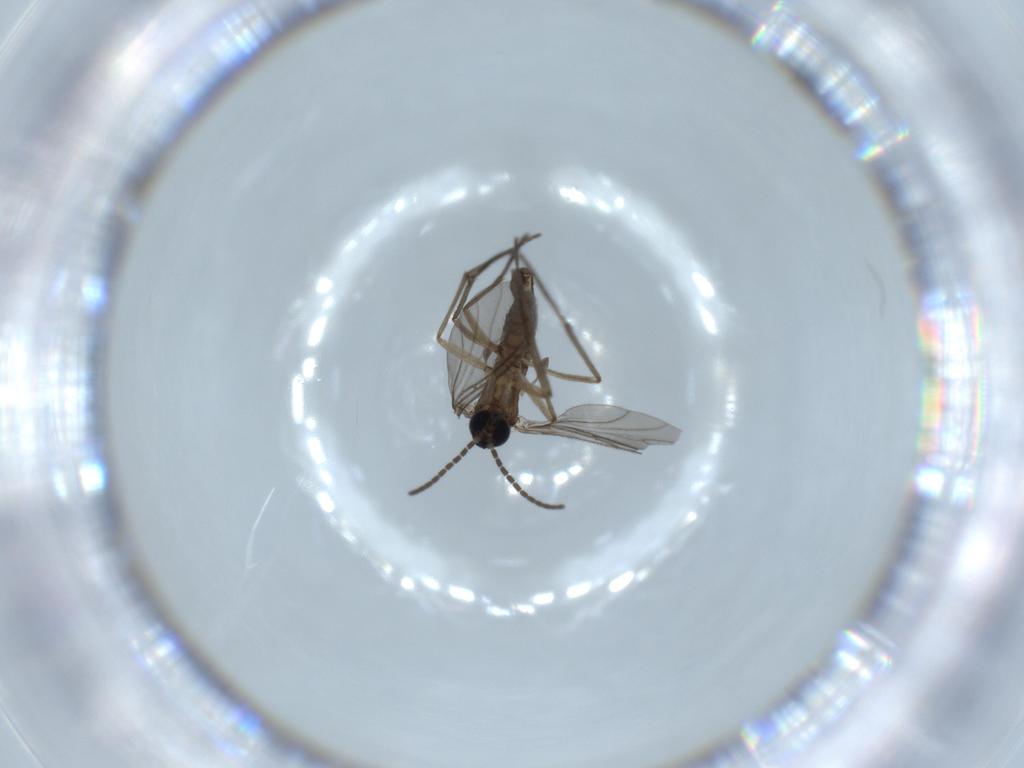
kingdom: Animalia
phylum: Arthropoda
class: Insecta
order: Diptera
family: Sciaridae
